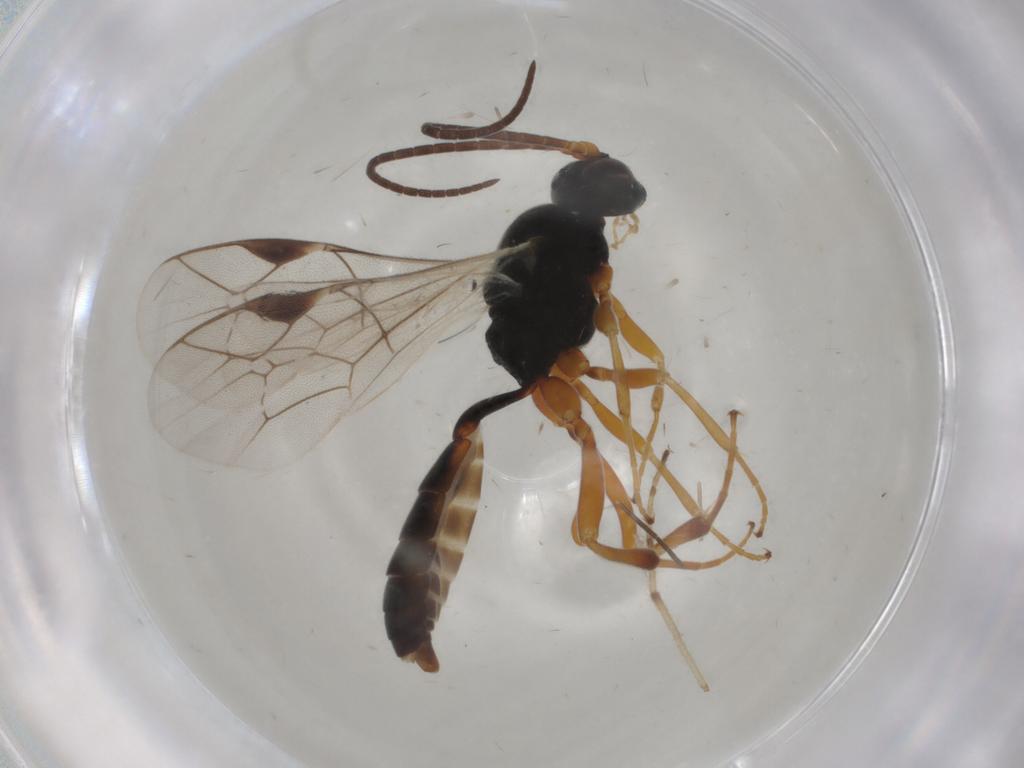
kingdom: Animalia
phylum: Arthropoda
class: Insecta
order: Hymenoptera
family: Ichneumonidae
